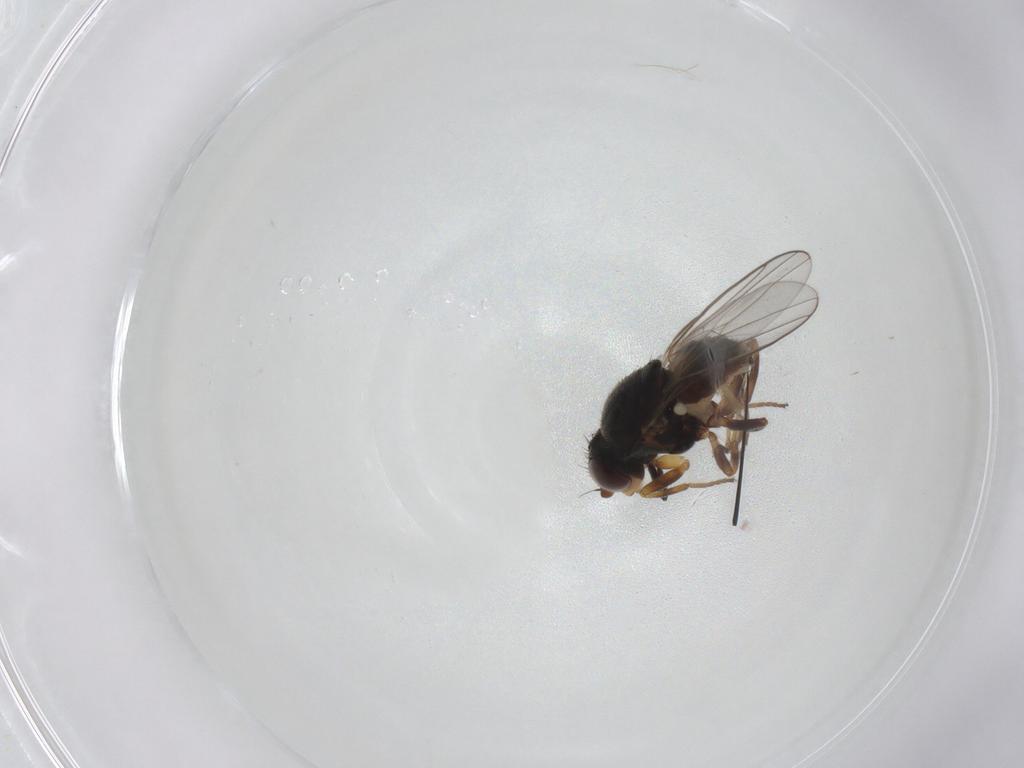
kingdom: Animalia
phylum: Arthropoda
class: Insecta
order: Diptera
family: Chloropidae
